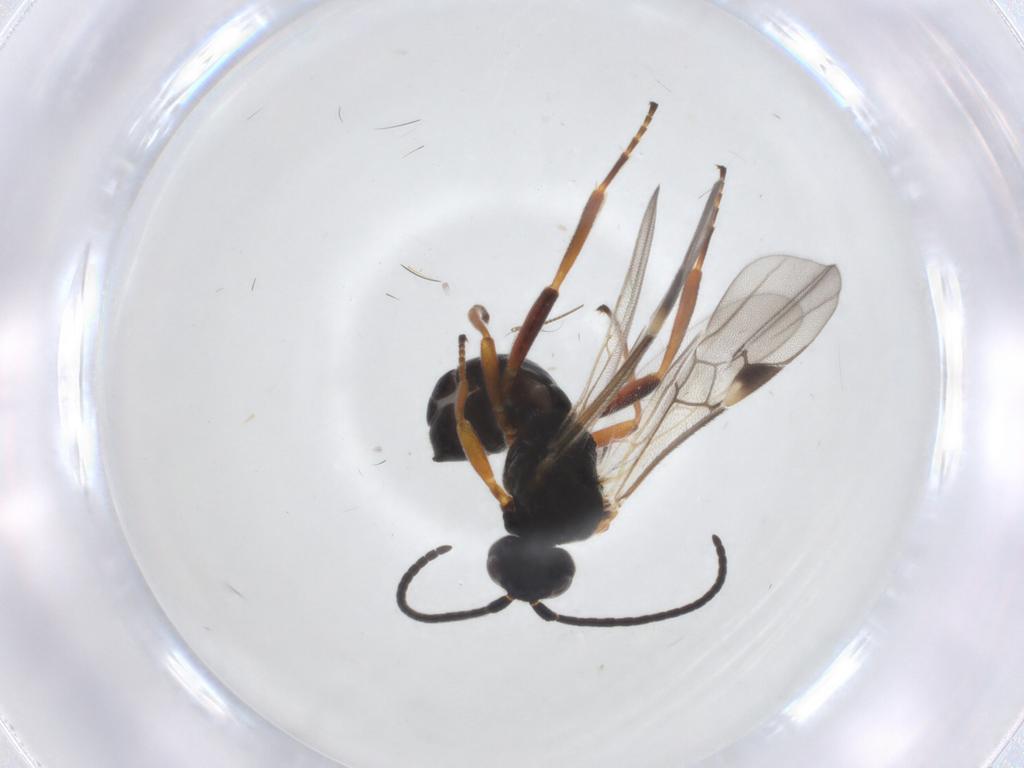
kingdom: Animalia
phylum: Arthropoda
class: Insecta
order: Hymenoptera
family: Braconidae
